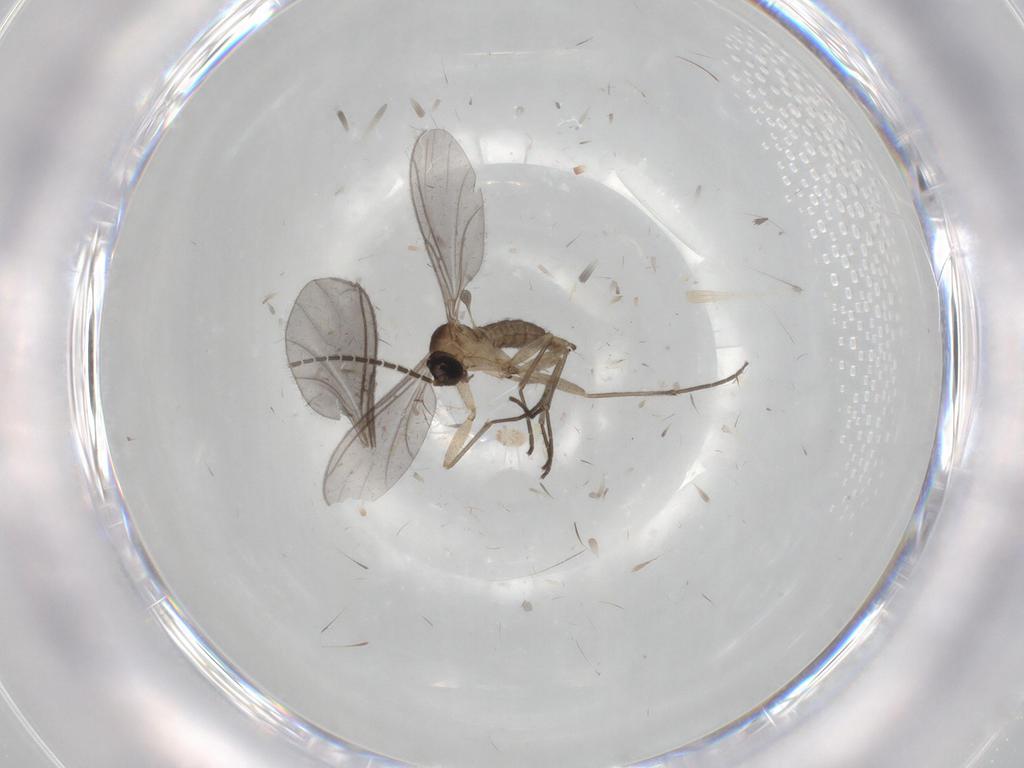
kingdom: Animalia
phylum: Arthropoda
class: Insecta
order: Diptera
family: Sciaridae
